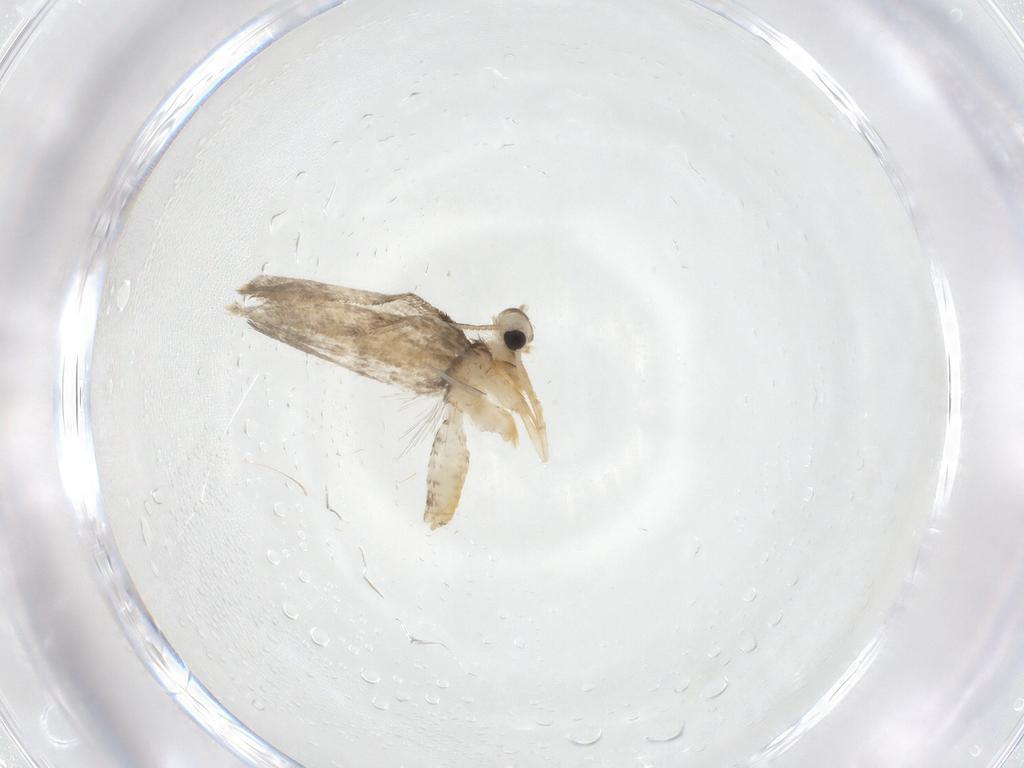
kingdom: Animalia
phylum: Arthropoda
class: Insecta
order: Lepidoptera
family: Psychidae
